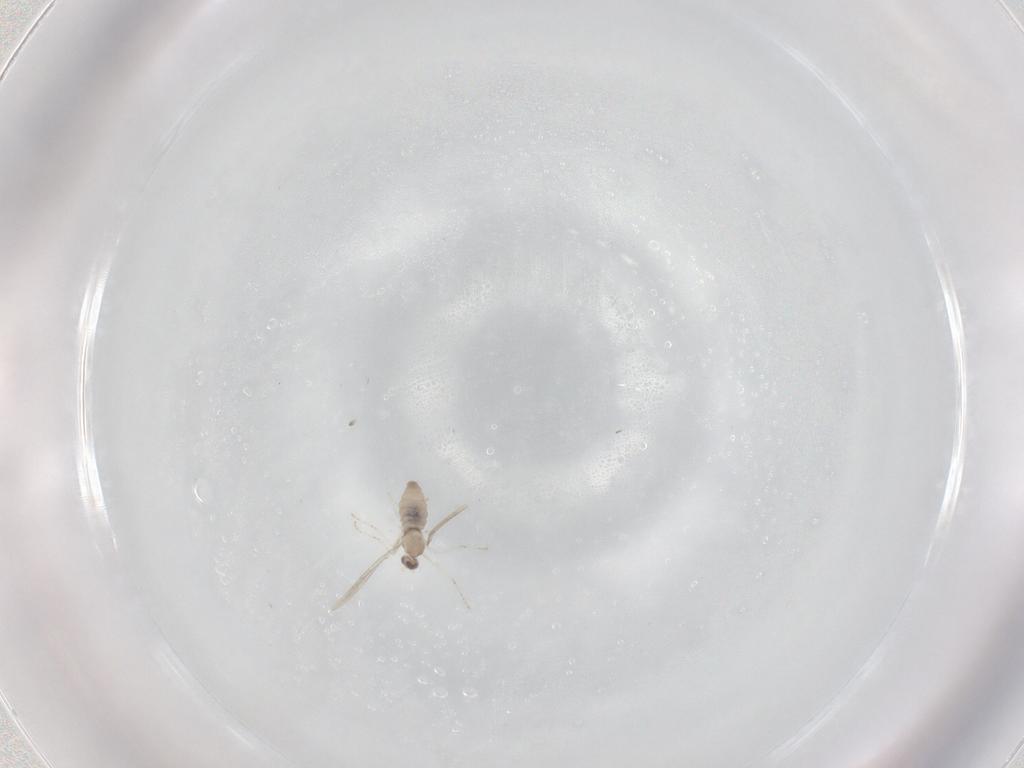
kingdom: Animalia
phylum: Arthropoda
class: Insecta
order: Diptera
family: Cecidomyiidae
